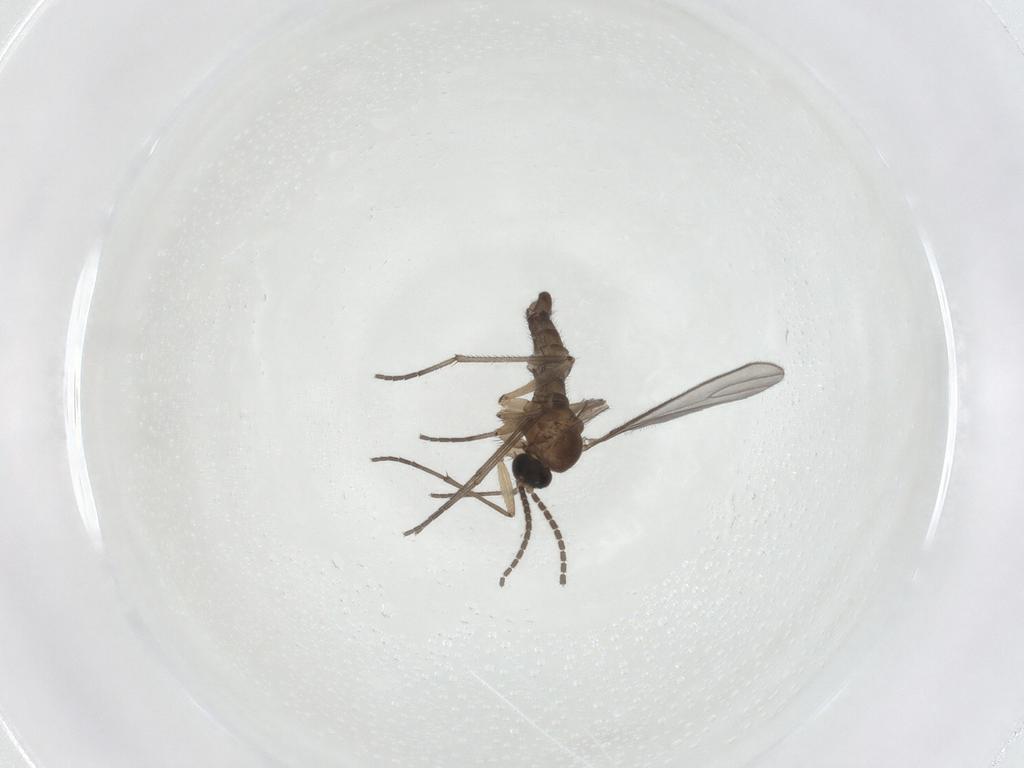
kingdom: Animalia
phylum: Arthropoda
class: Insecta
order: Diptera
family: Sciaridae
